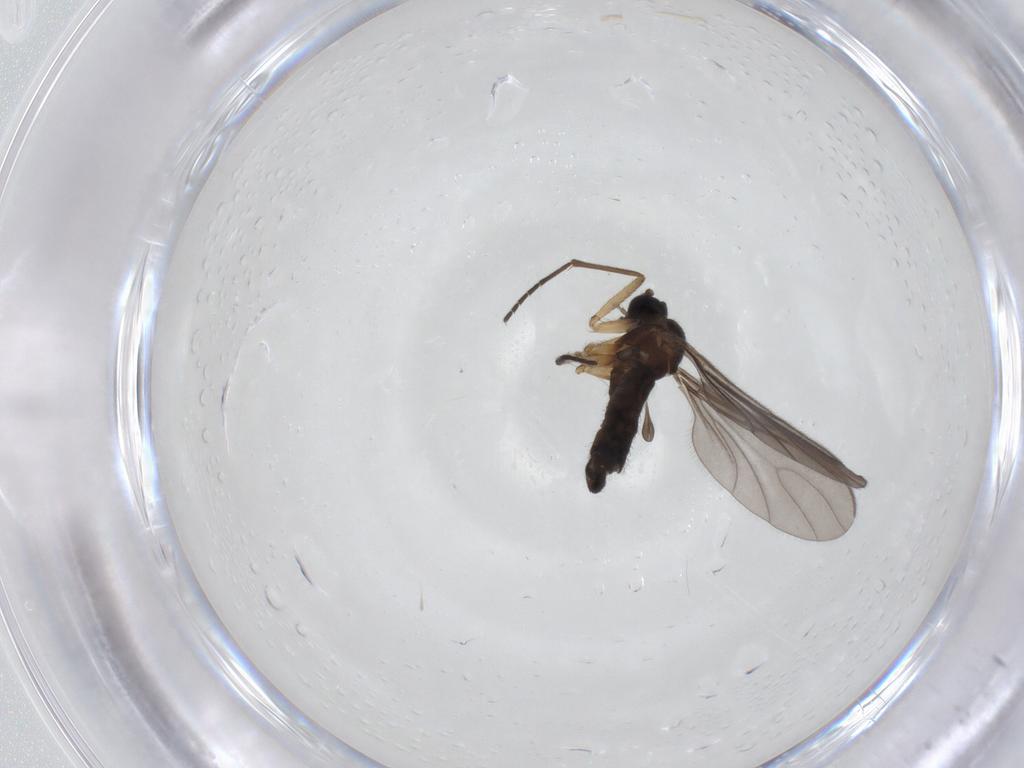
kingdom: Animalia
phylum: Arthropoda
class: Insecta
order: Diptera
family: Sciaridae
